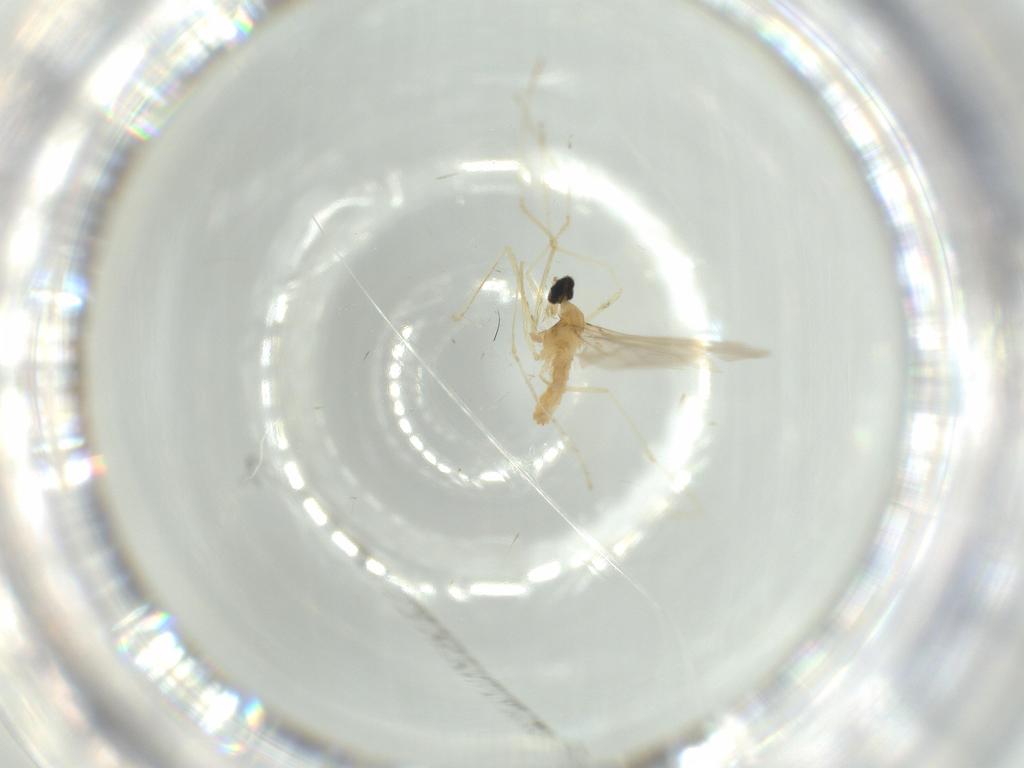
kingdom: Animalia
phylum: Arthropoda
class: Insecta
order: Diptera
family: Cecidomyiidae
